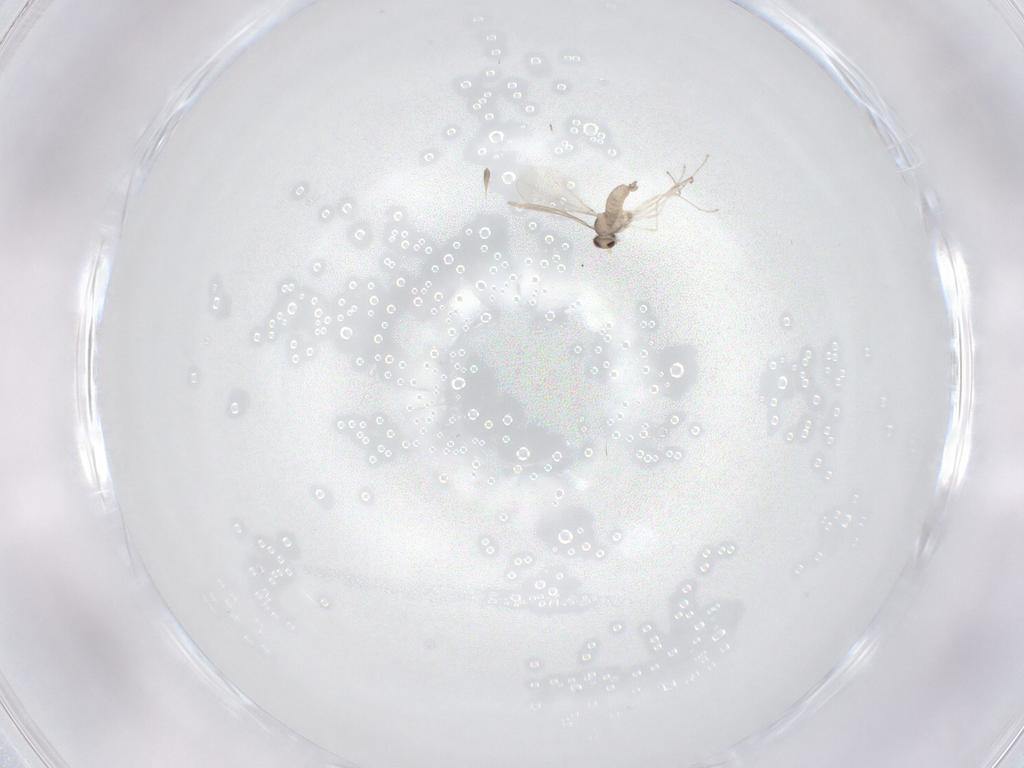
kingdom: Animalia
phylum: Arthropoda
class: Insecta
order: Diptera
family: Cecidomyiidae
